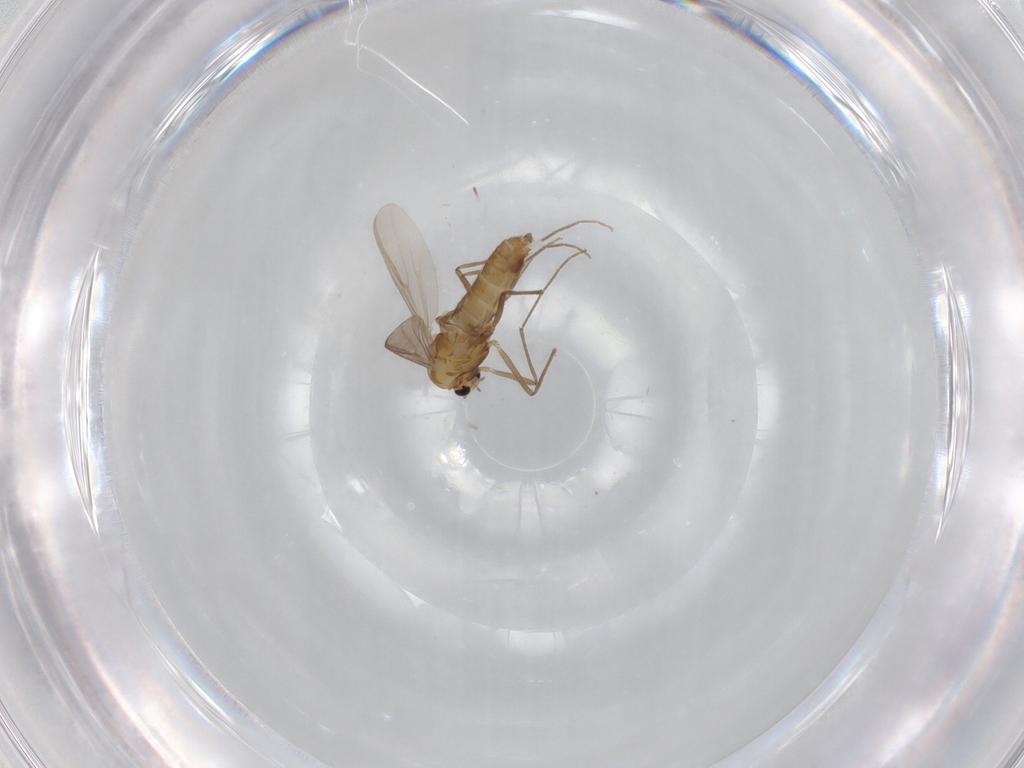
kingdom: Animalia
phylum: Arthropoda
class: Insecta
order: Diptera
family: Chironomidae
